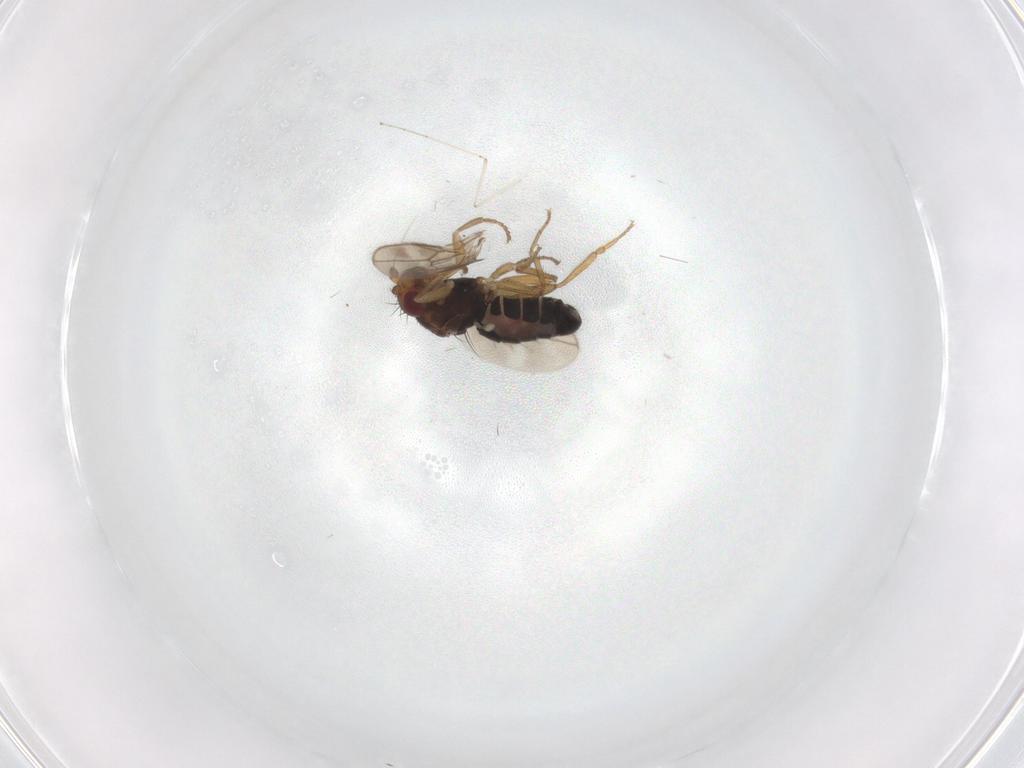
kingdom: Animalia
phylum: Arthropoda
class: Insecta
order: Diptera
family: Sphaeroceridae
